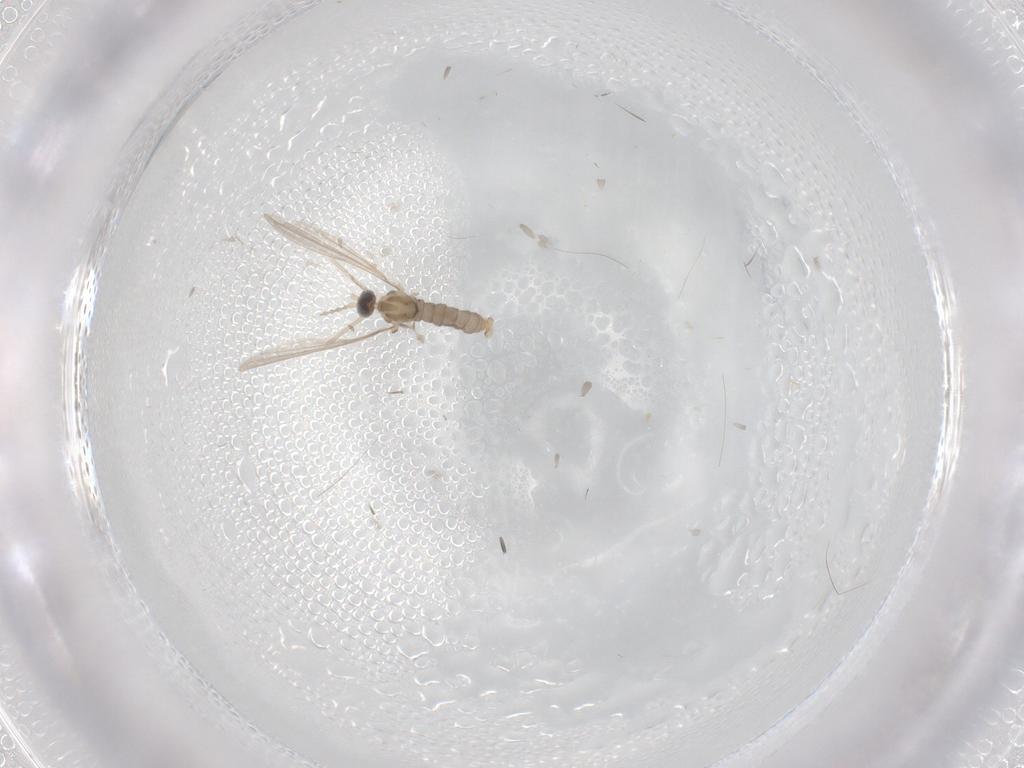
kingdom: Animalia
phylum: Arthropoda
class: Insecta
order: Diptera
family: Cecidomyiidae
